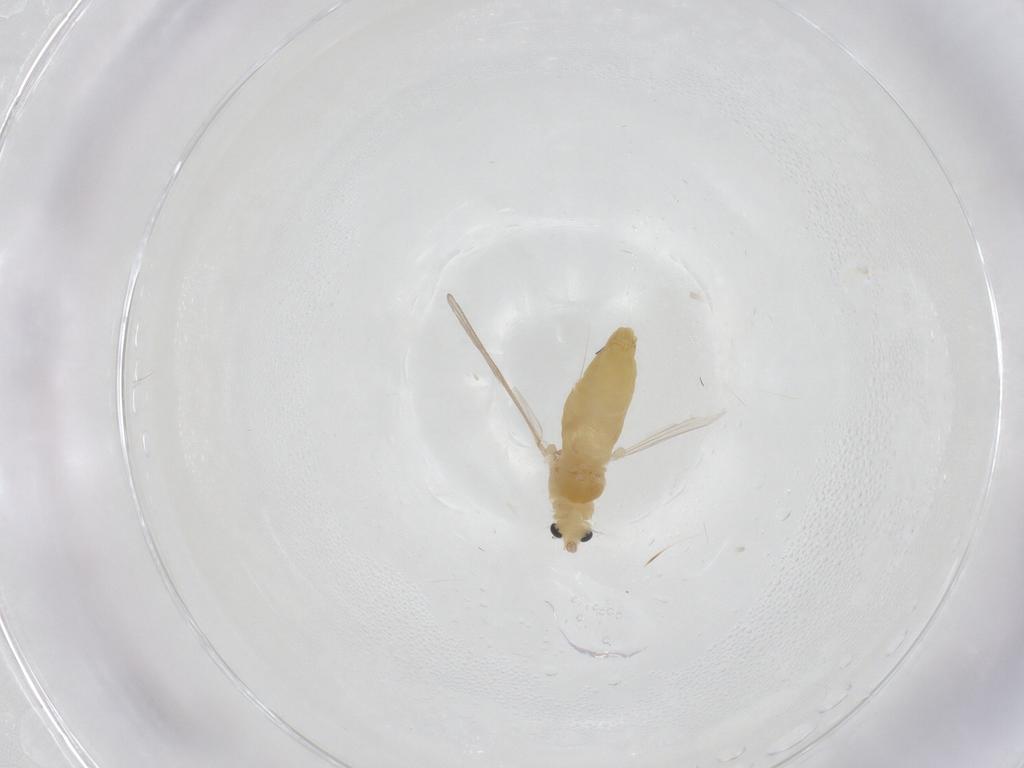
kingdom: Animalia
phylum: Arthropoda
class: Insecta
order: Diptera
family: Chironomidae
